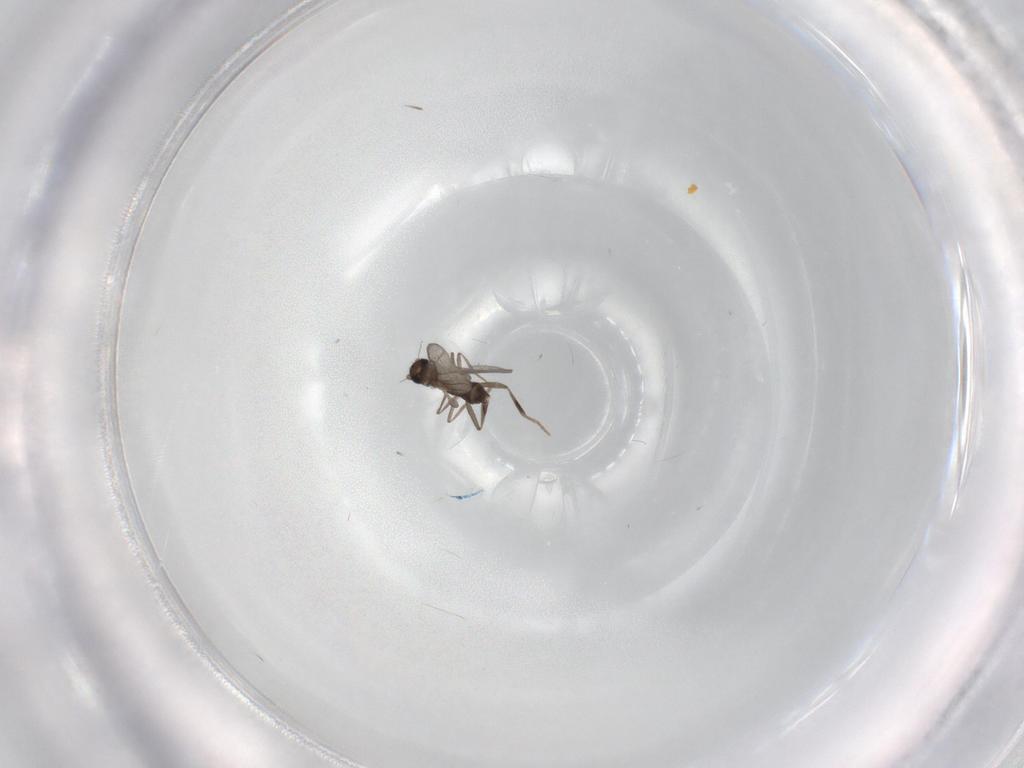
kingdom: Animalia
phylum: Arthropoda
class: Insecta
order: Diptera
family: Phoridae
